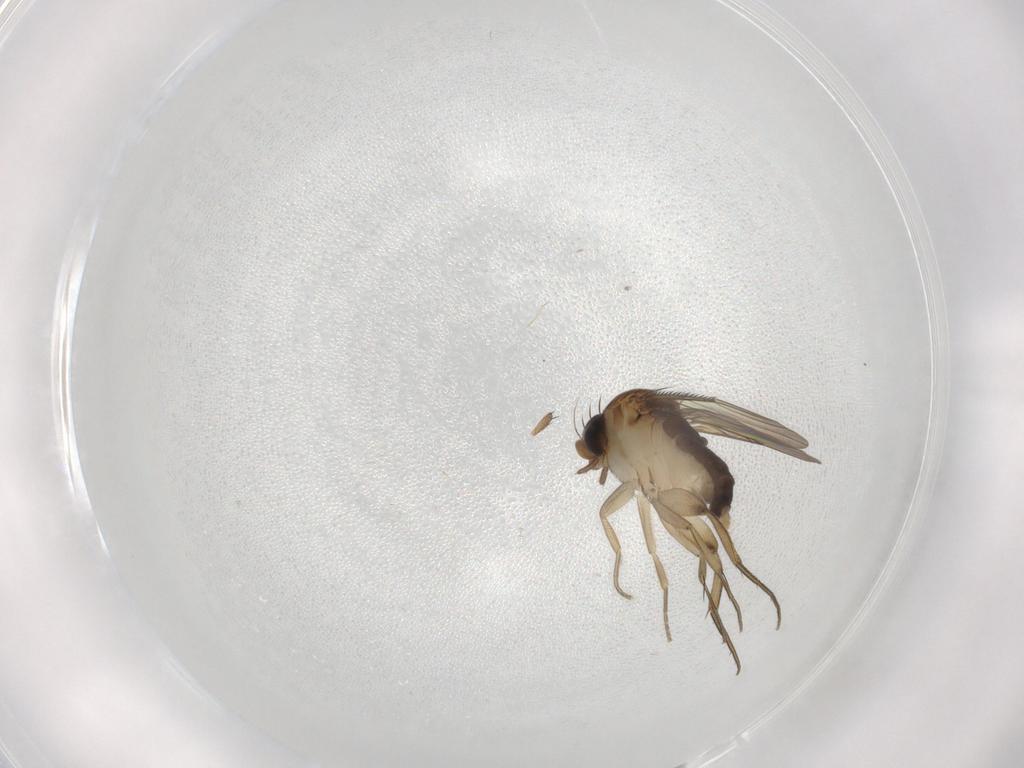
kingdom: Animalia
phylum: Arthropoda
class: Insecta
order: Diptera
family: Phoridae
